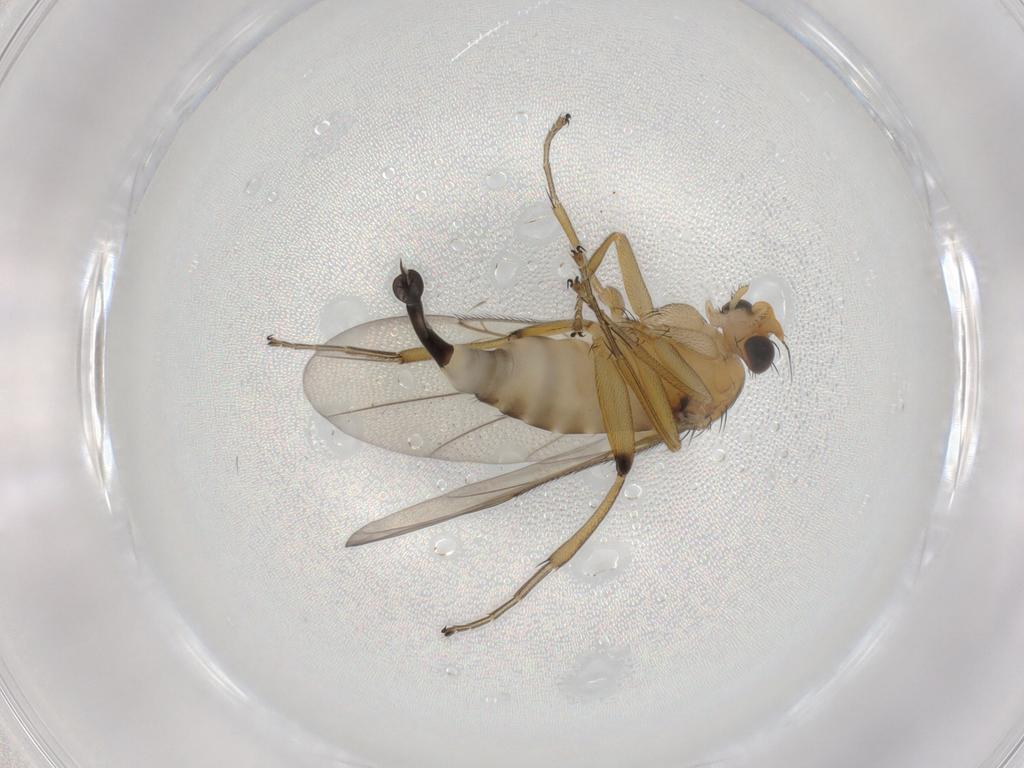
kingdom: Animalia
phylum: Arthropoda
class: Insecta
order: Diptera
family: Phoridae
